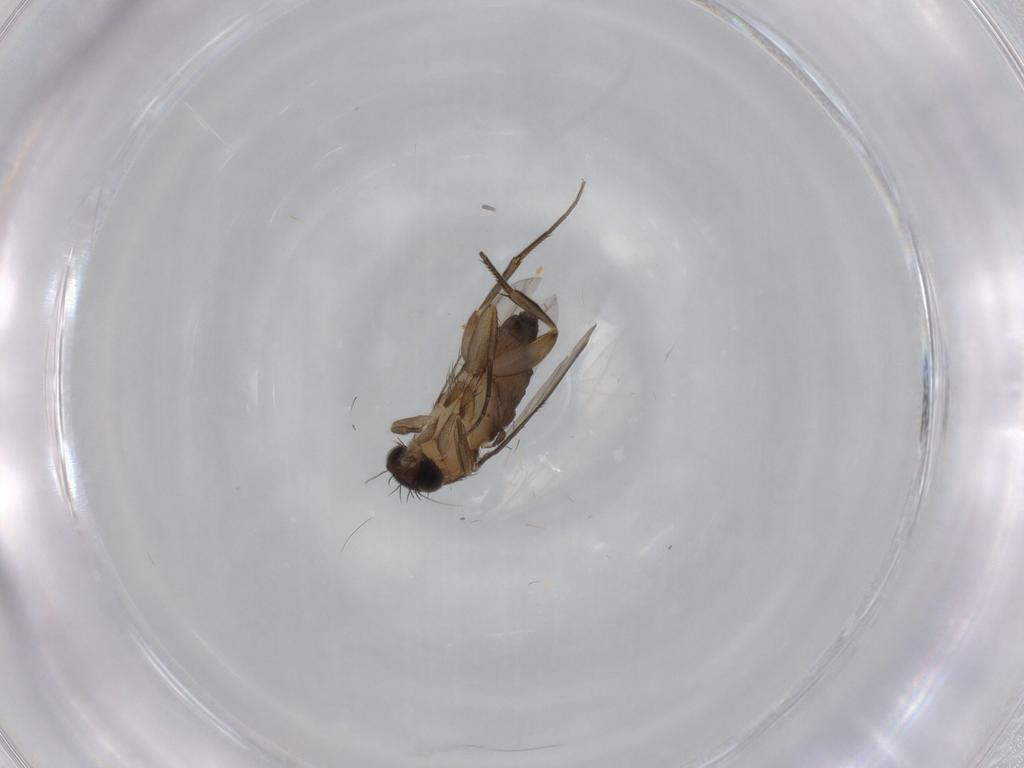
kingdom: Animalia
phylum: Arthropoda
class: Insecta
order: Diptera
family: Phoridae
